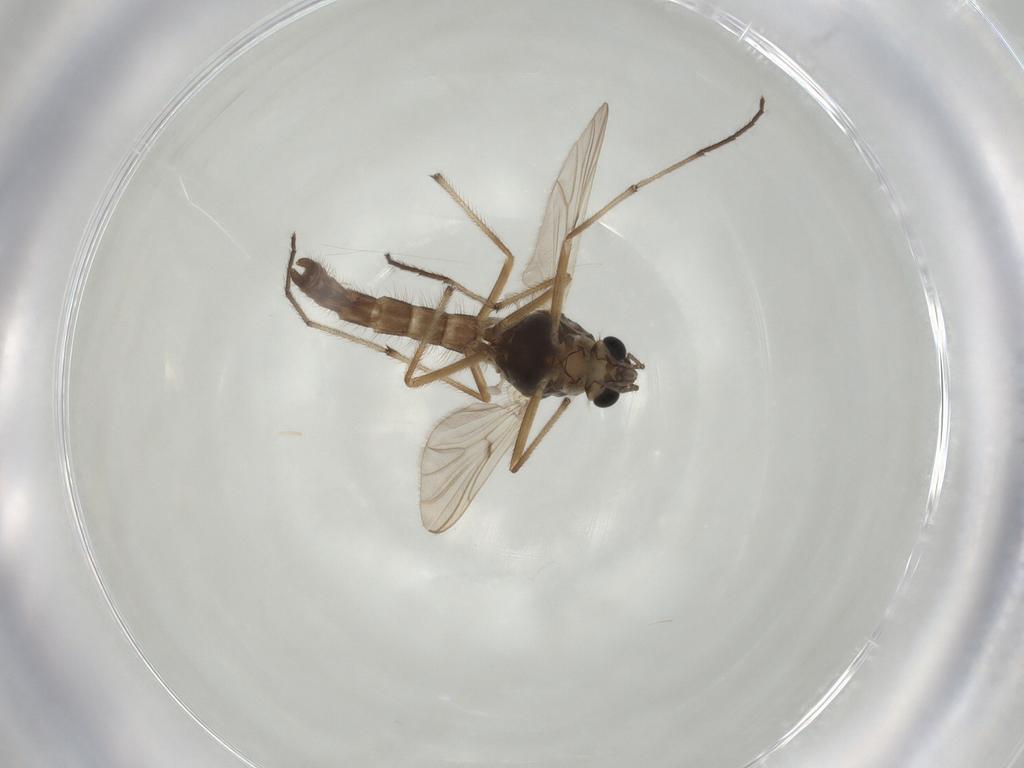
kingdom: Animalia
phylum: Arthropoda
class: Insecta
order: Diptera
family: Chironomidae
